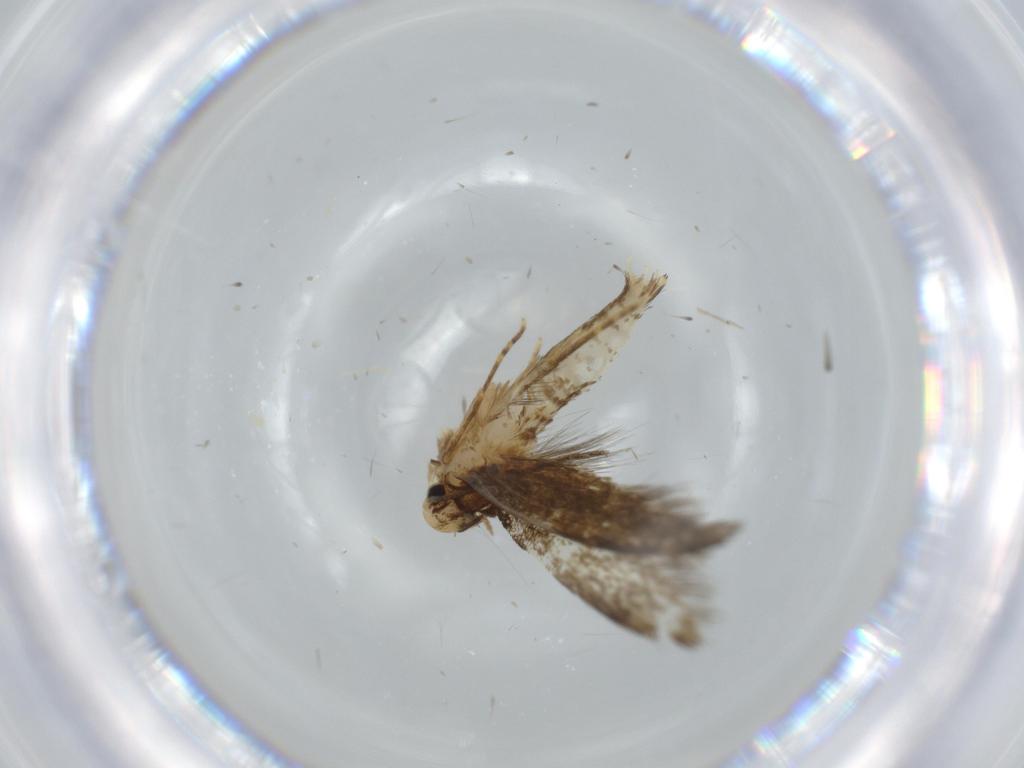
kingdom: Animalia
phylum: Arthropoda
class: Insecta
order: Lepidoptera
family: Tineidae
